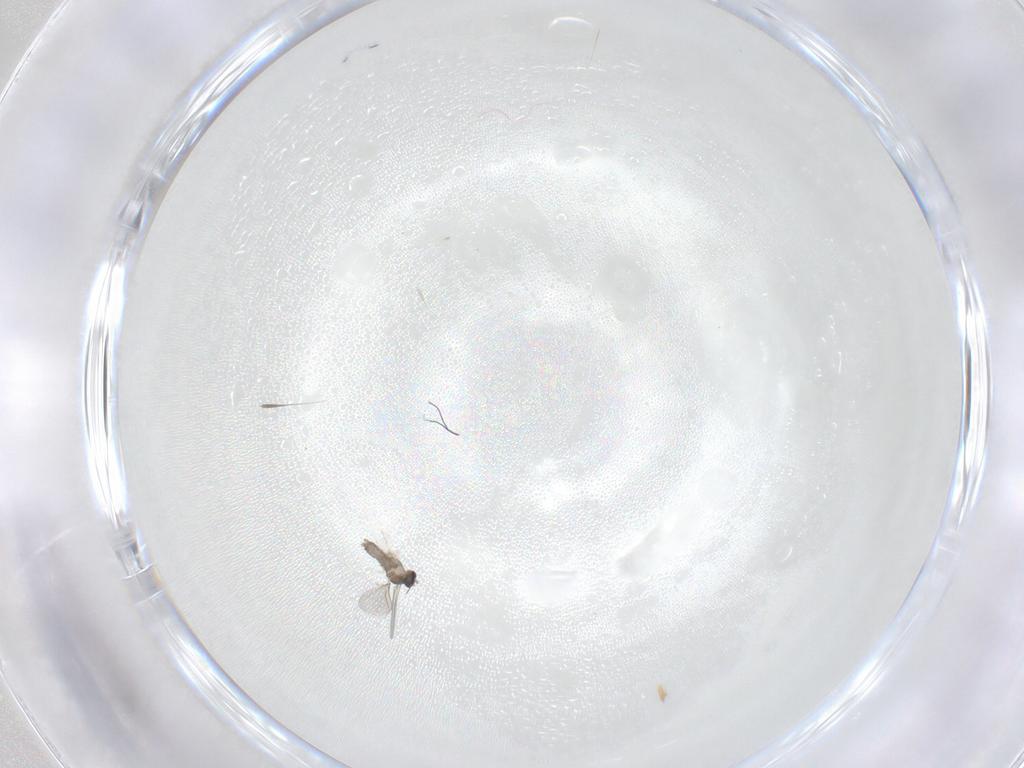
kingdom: Animalia
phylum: Arthropoda
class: Insecta
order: Diptera
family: Cecidomyiidae
